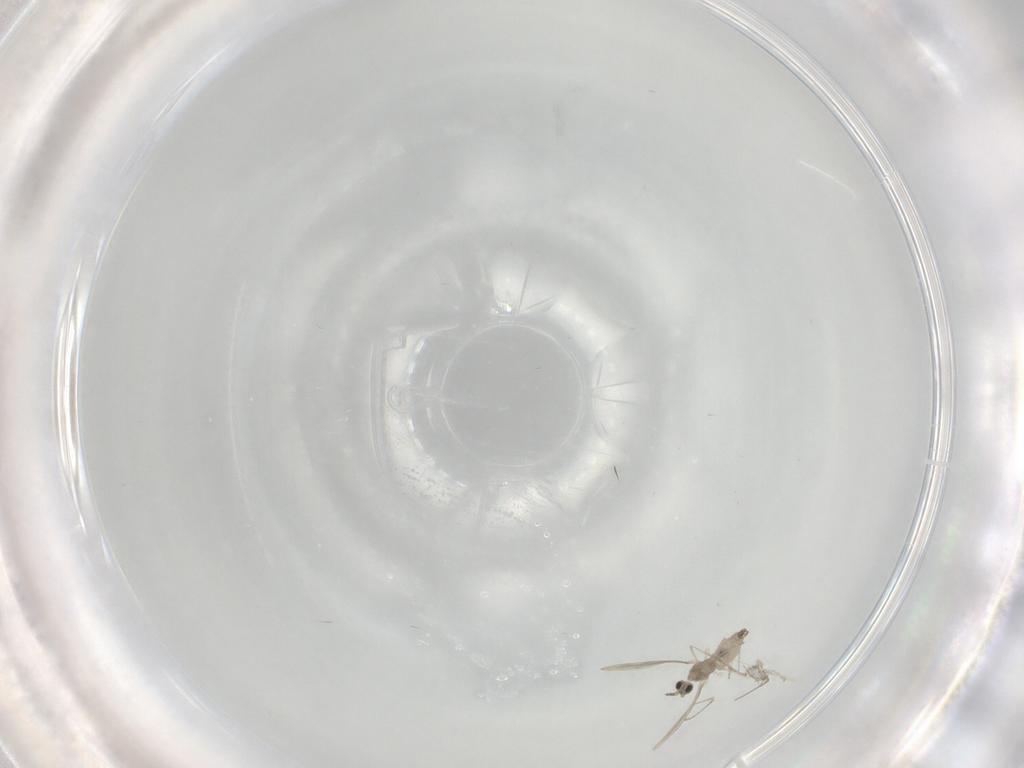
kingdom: Animalia
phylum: Arthropoda
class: Insecta
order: Diptera
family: Cecidomyiidae
